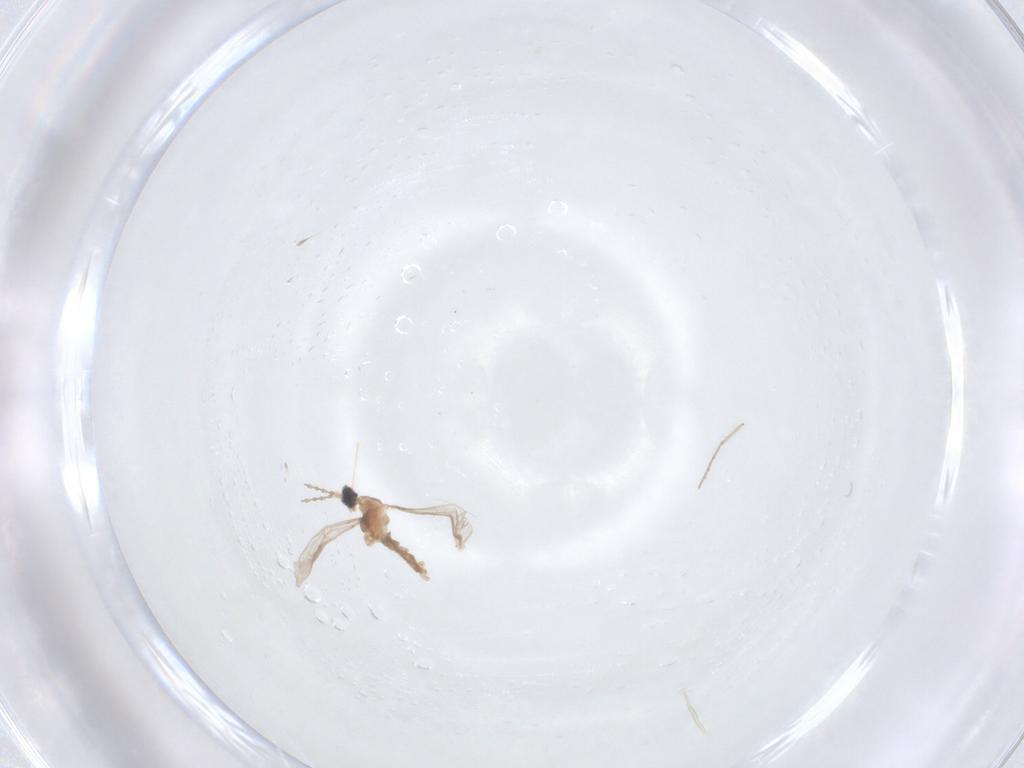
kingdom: Animalia
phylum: Arthropoda
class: Insecta
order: Diptera
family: Cecidomyiidae
